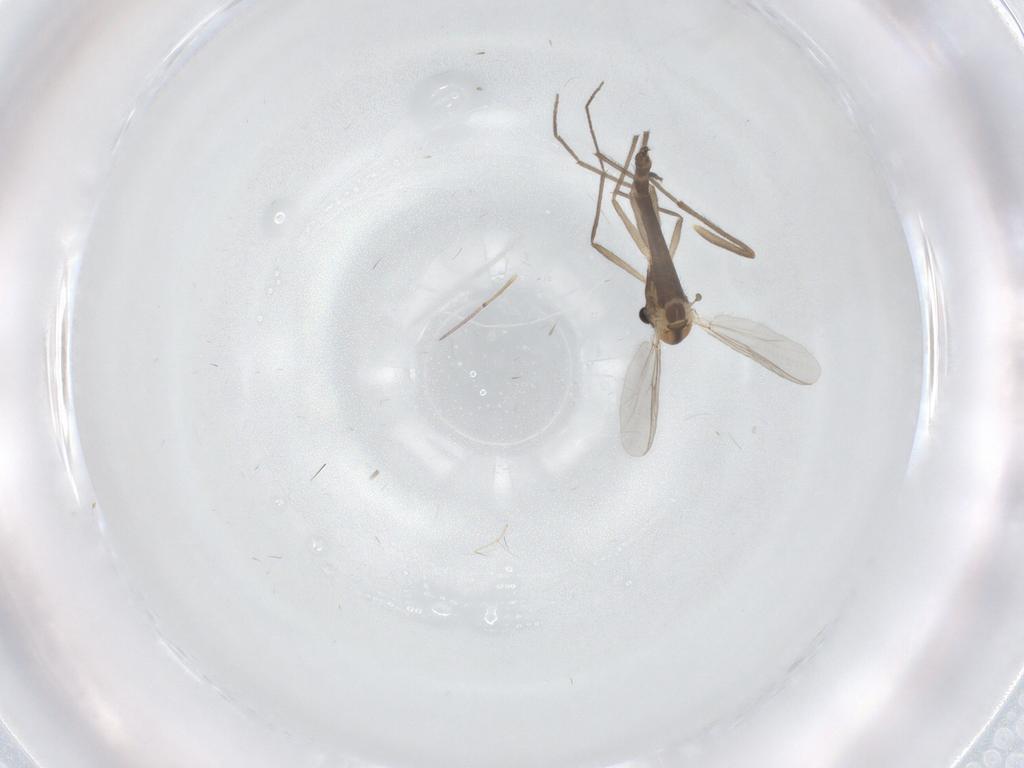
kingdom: Animalia
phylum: Arthropoda
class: Insecta
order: Diptera
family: Chironomidae
